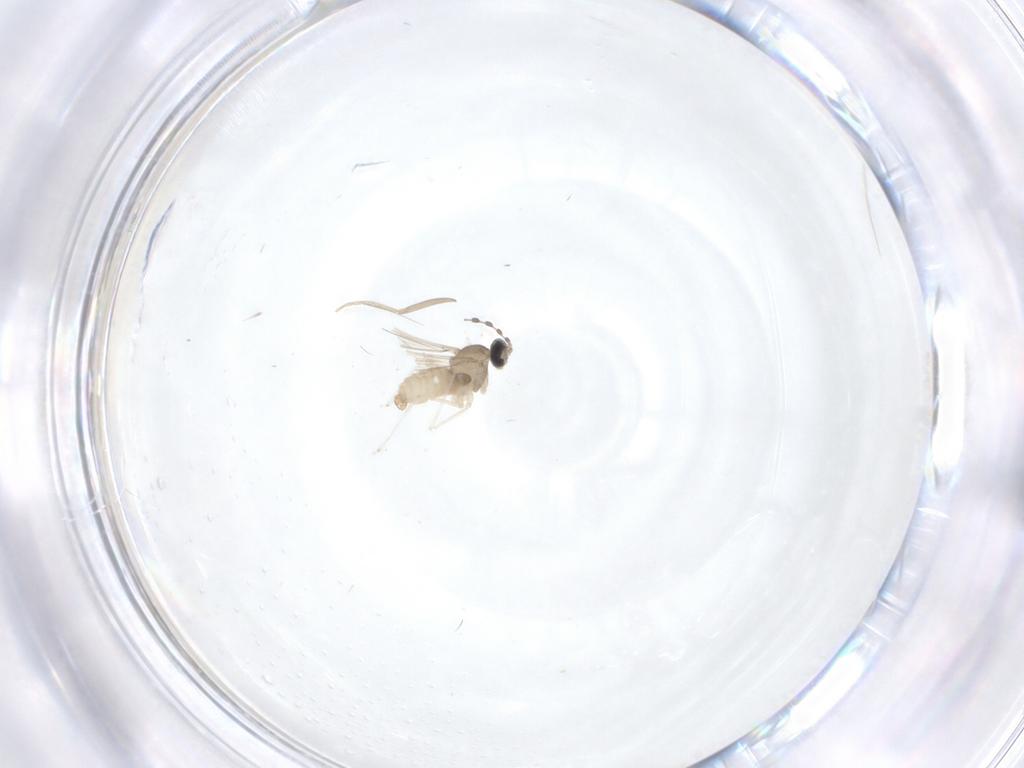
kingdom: Animalia
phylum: Arthropoda
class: Insecta
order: Diptera
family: Cecidomyiidae
